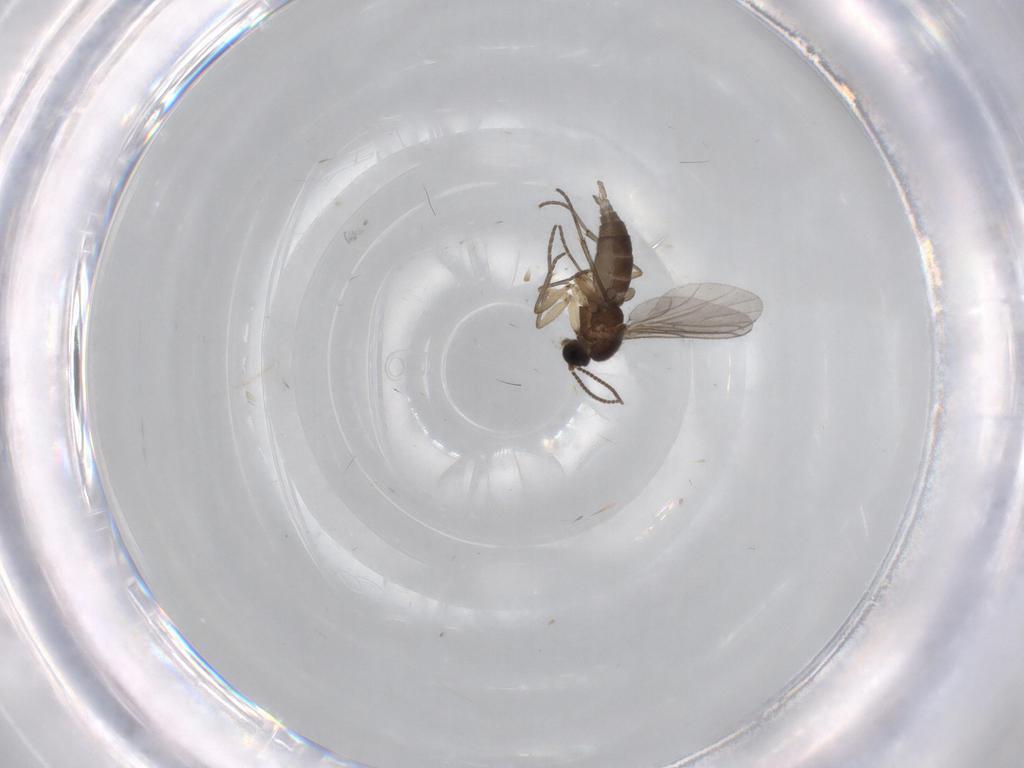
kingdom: Animalia
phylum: Arthropoda
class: Insecta
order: Diptera
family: Sciaridae
